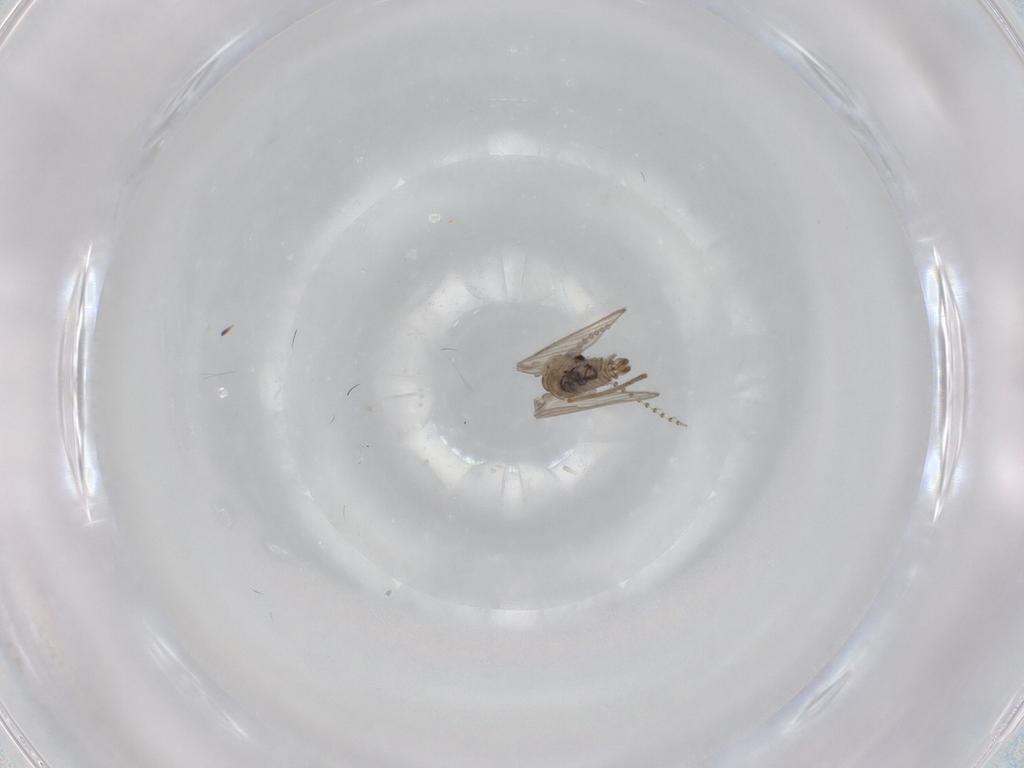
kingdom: Animalia
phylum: Arthropoda
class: Insecta
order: Diptera
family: Psychodidae
